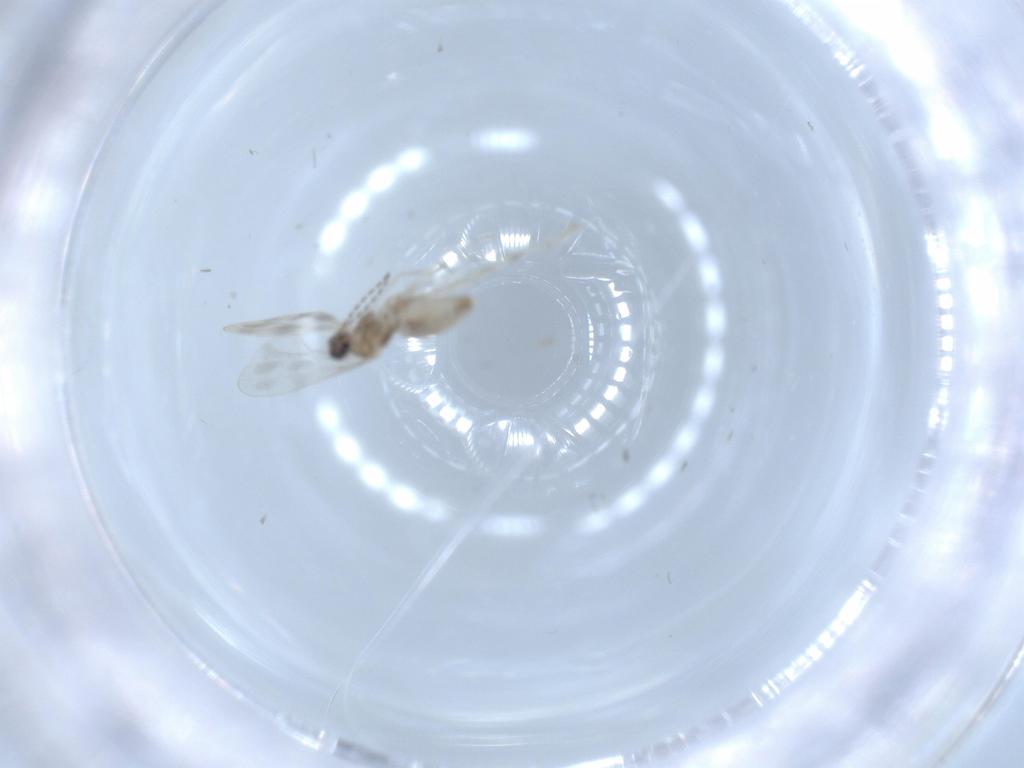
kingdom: Animalia
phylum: Arthropoda
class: Insecta
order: Diptera
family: Cecidomyiidae
